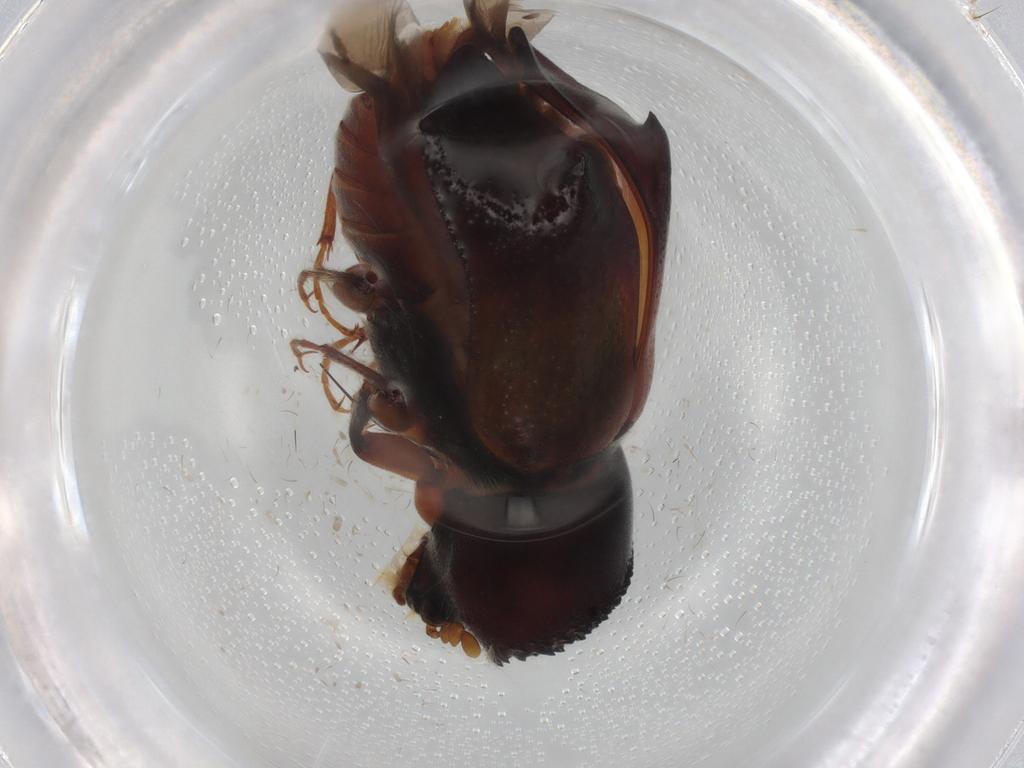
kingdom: Animalia
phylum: Arthropoda
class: Insecta
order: Coleoptera
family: Bostrichidae
